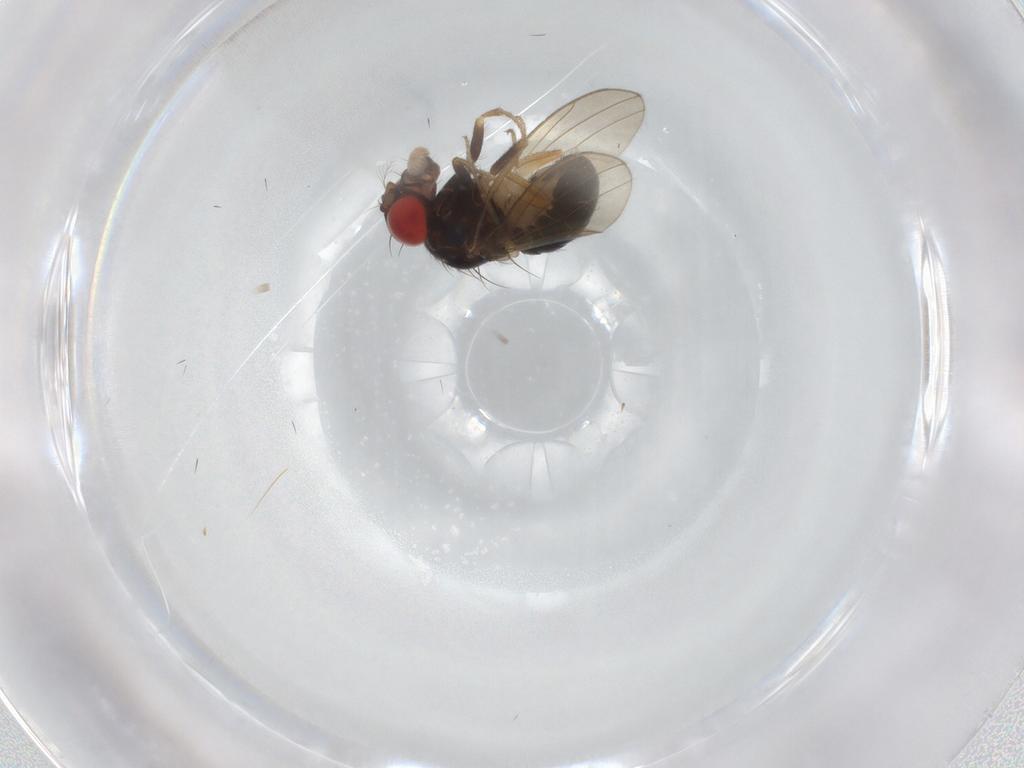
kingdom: Animalia
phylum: Arthropoda
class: Insecta
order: Diptera
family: Drosophilidae
